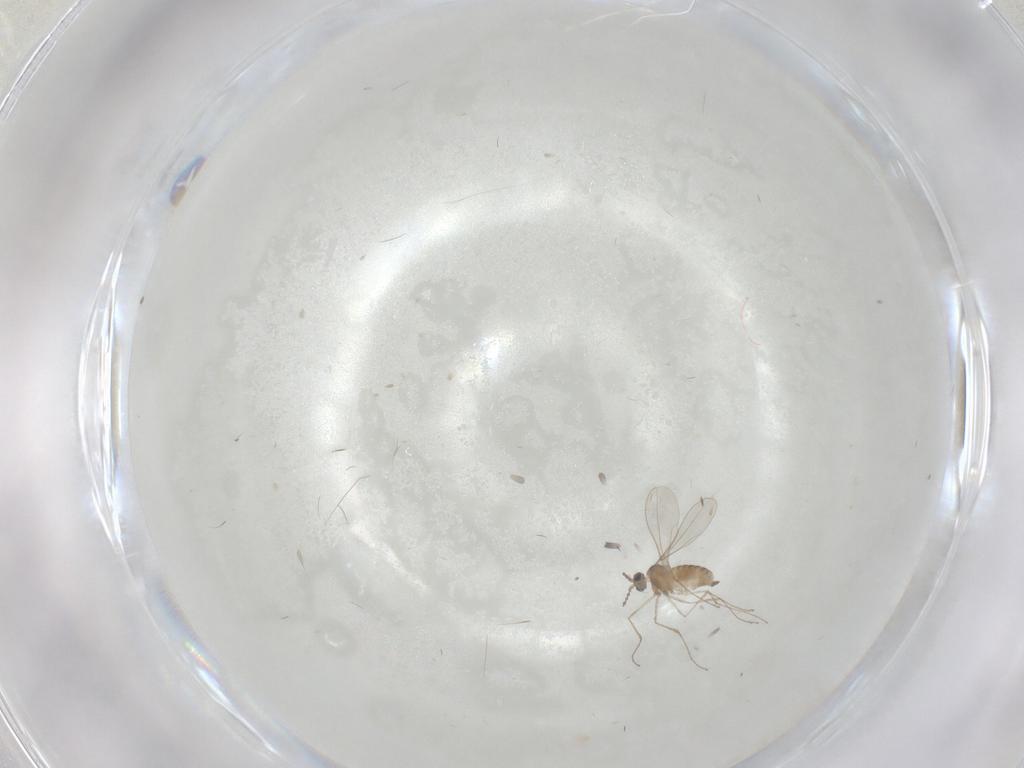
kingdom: Animalia
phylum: Arthropoda
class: Insecta
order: Diptera
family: Cecidomyiidae
